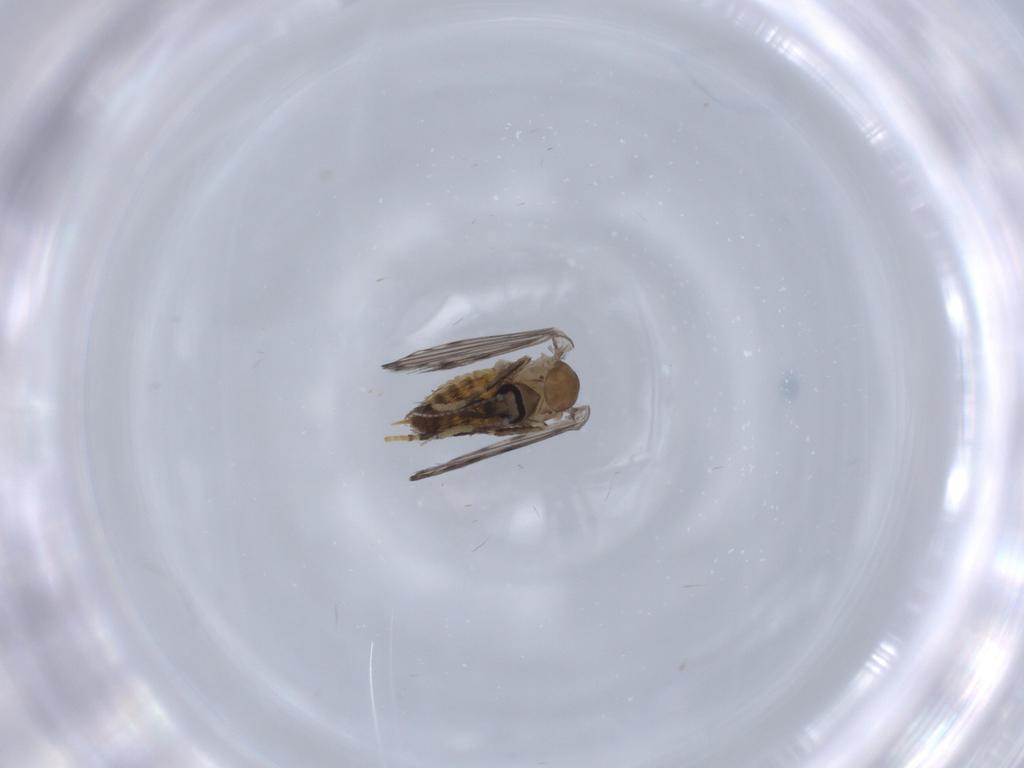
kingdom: Animalia
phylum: Arthropoda
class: Insecta
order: Diptera
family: Psychodidae
